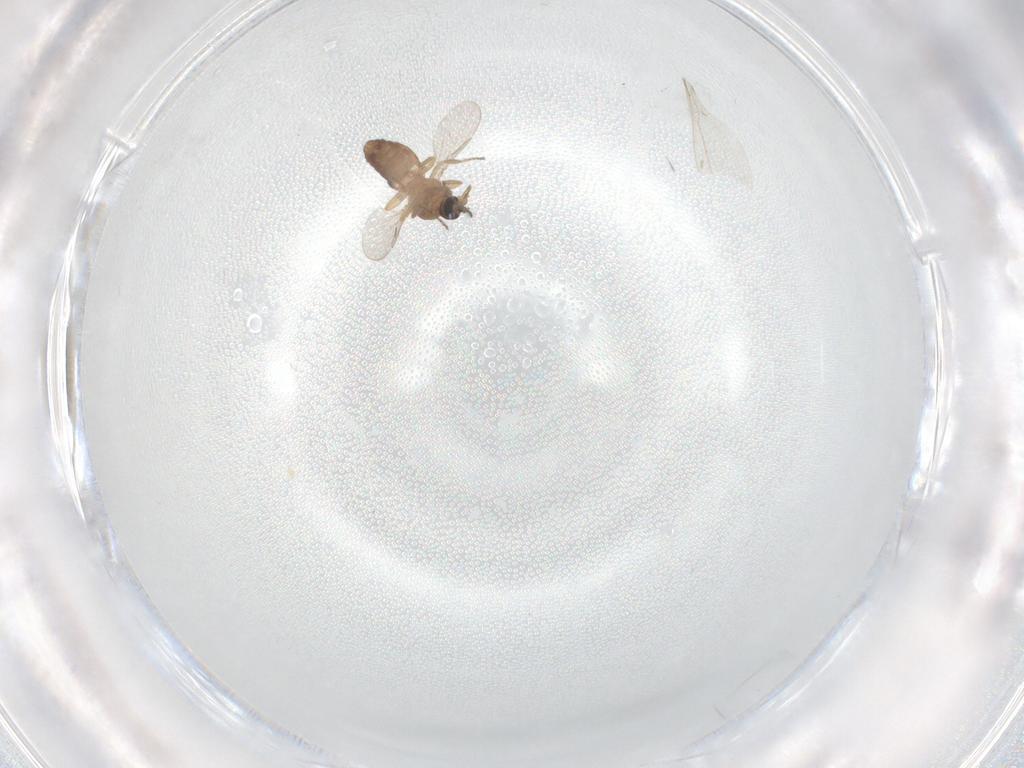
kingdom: Animalia
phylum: Arthropoda
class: Insecta
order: Diptera
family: Ceratopogonidae
